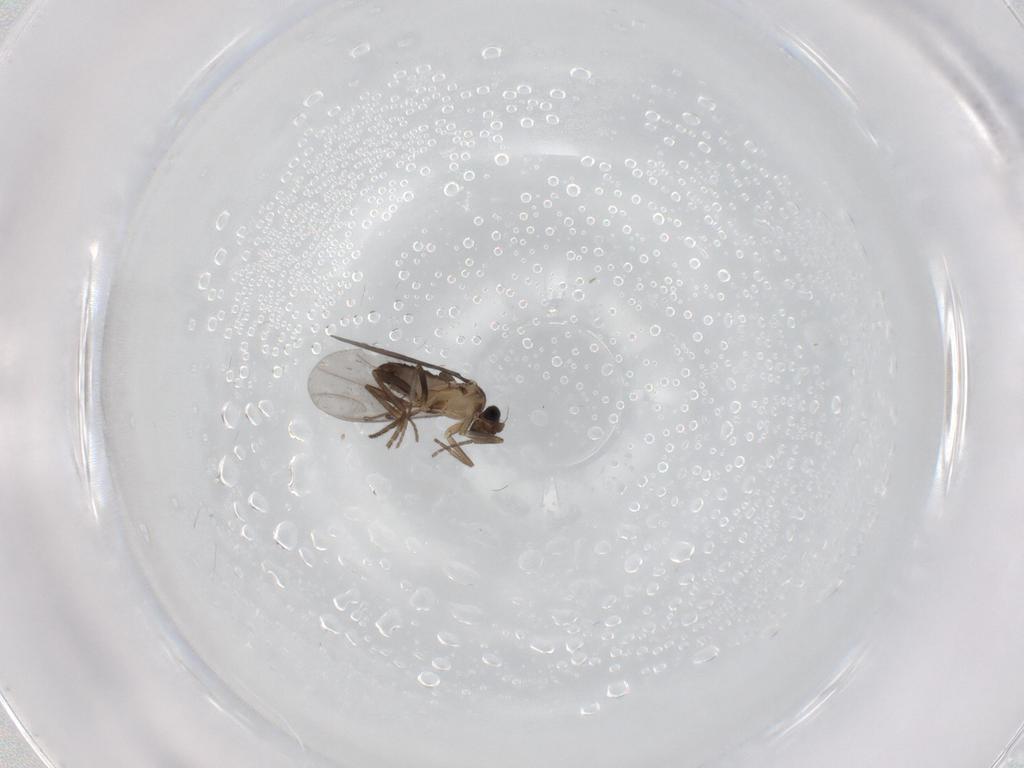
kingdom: Animalia
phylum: Arthropoda
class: Insecta
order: Diptera
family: Phoridae
